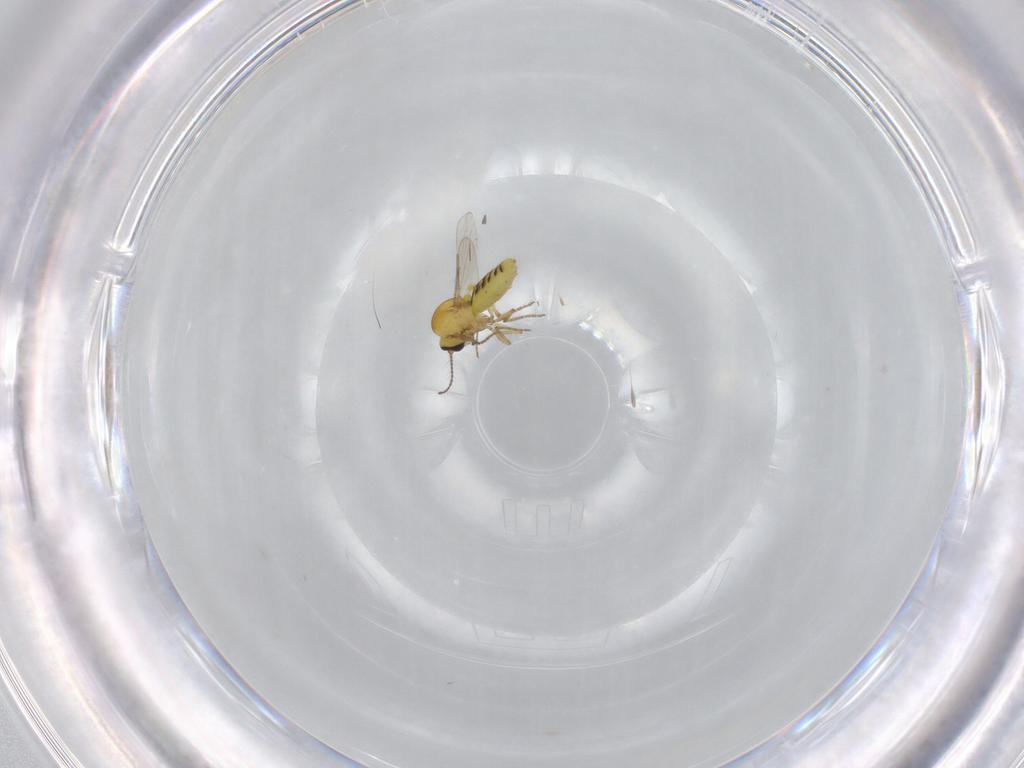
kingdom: Animalia
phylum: Arthropoda
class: Insecta
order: Diptera
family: Ceratopogonidae
